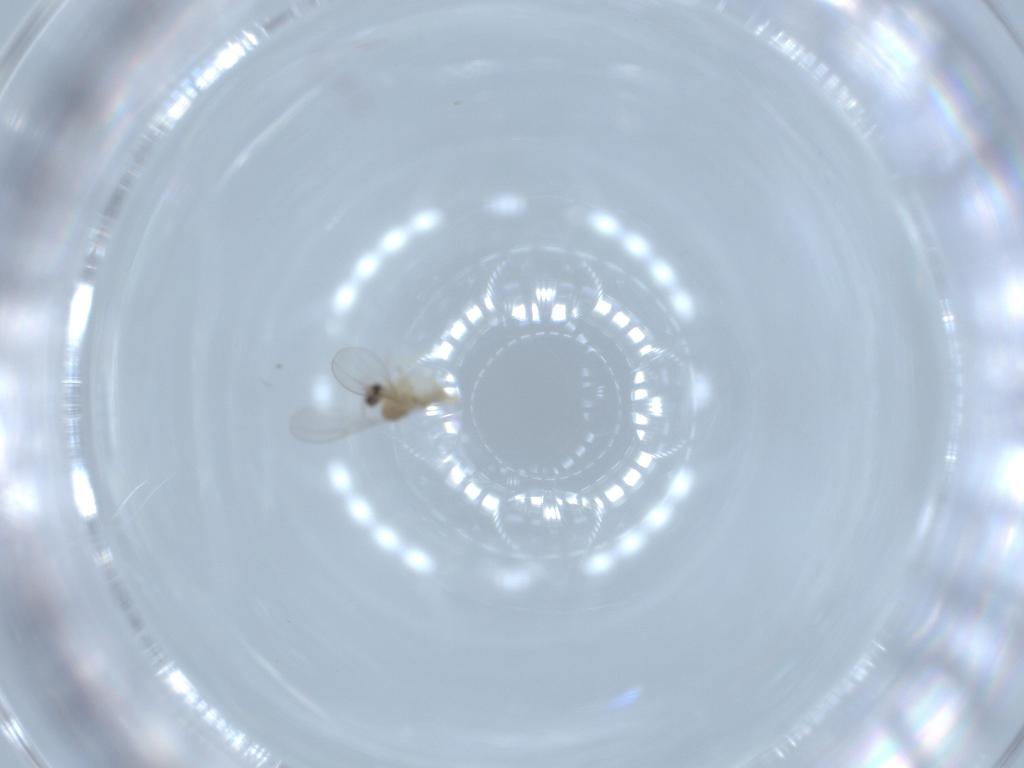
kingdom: Animalia
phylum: Arthropoda
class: Insecta
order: Diptera
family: Cecidomyiidae
